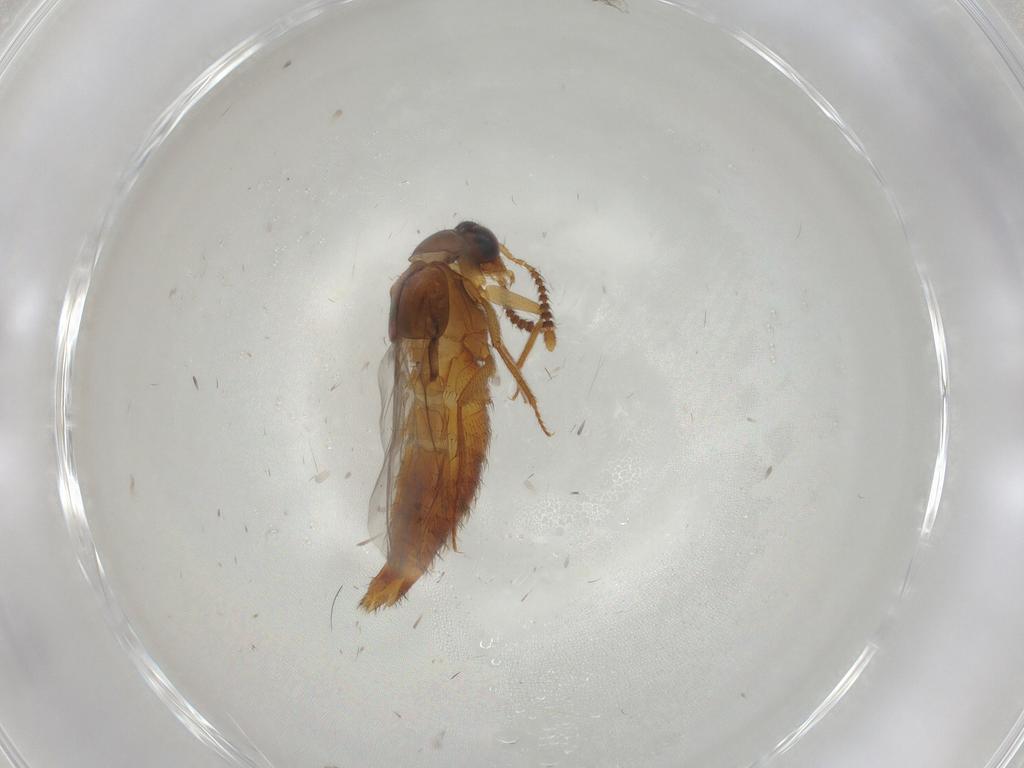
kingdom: Animalia
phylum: Arthropoda
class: Insecta
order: Coleoptera
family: Staphylinidae
